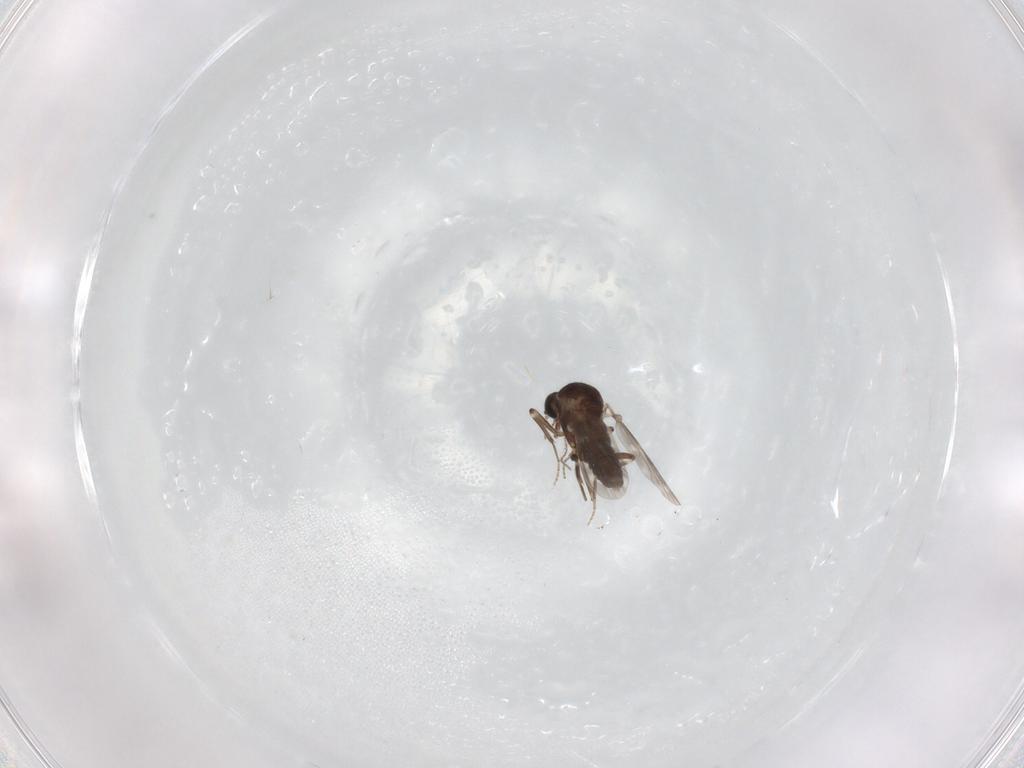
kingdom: Animalia
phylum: Arthropoda
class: Insecta
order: Diptera
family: Ceratopogonidae
